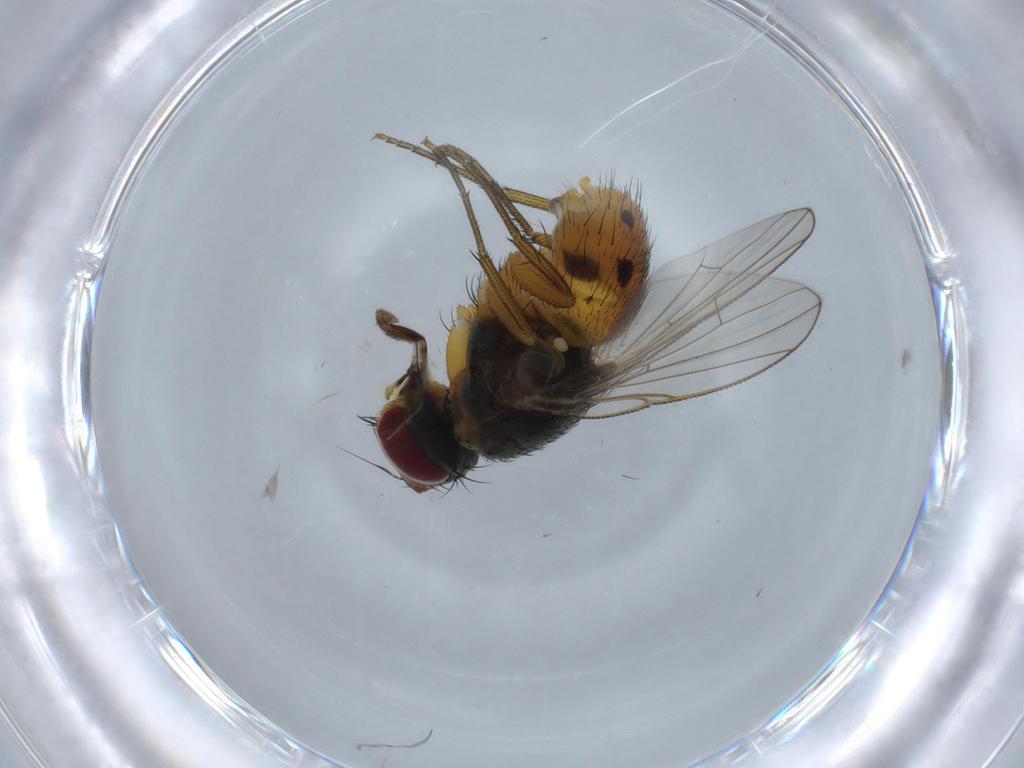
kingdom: Animalia
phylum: Arthropoda
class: Insecta
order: Diptera
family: Muscidae
